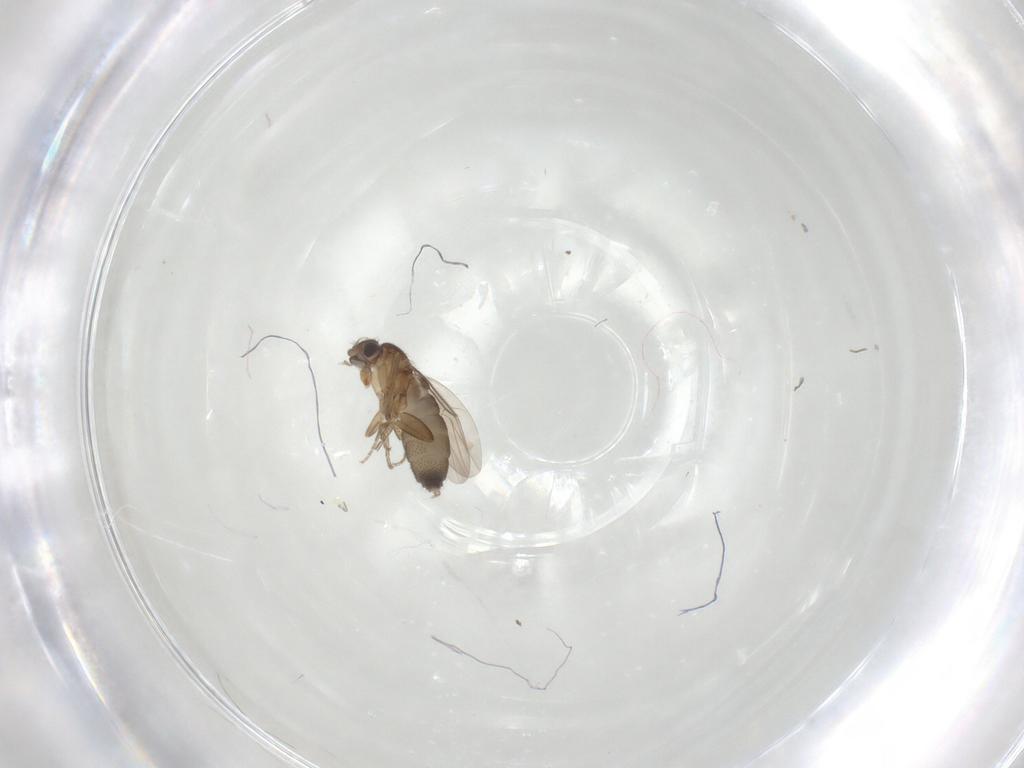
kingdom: Animalia
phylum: Arthropoda
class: Insecta
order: Diptera
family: Phoridae
